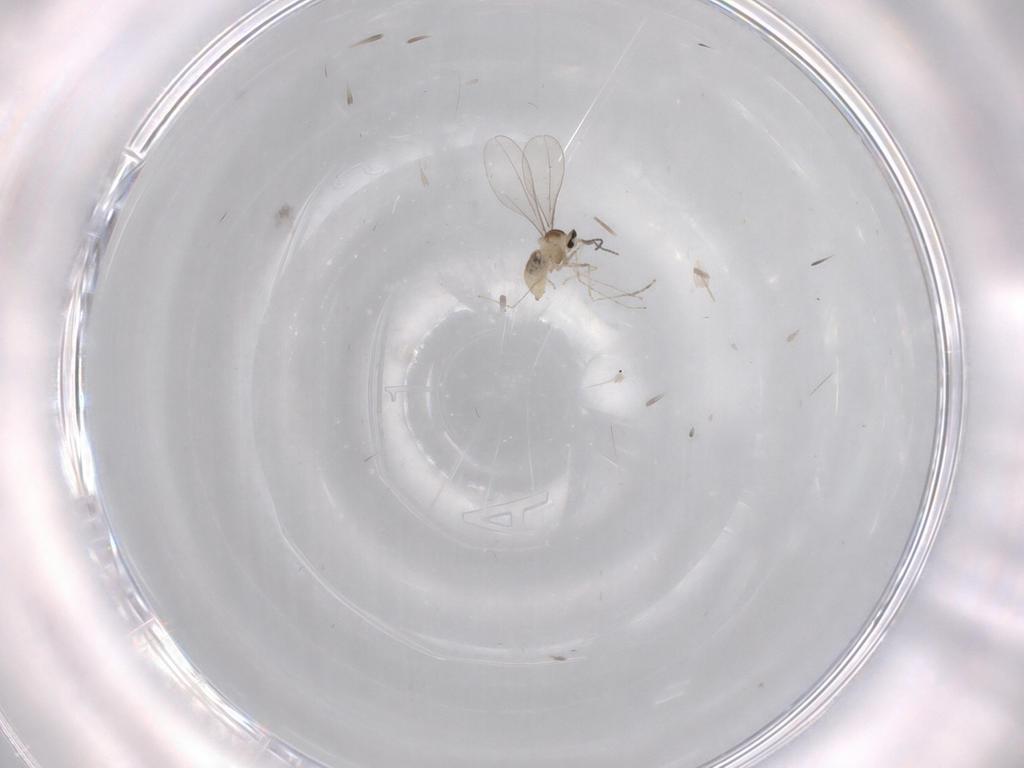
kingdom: Animalia
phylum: Arthropoda
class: Insecta
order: Diptera
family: Cecidomyiidae
